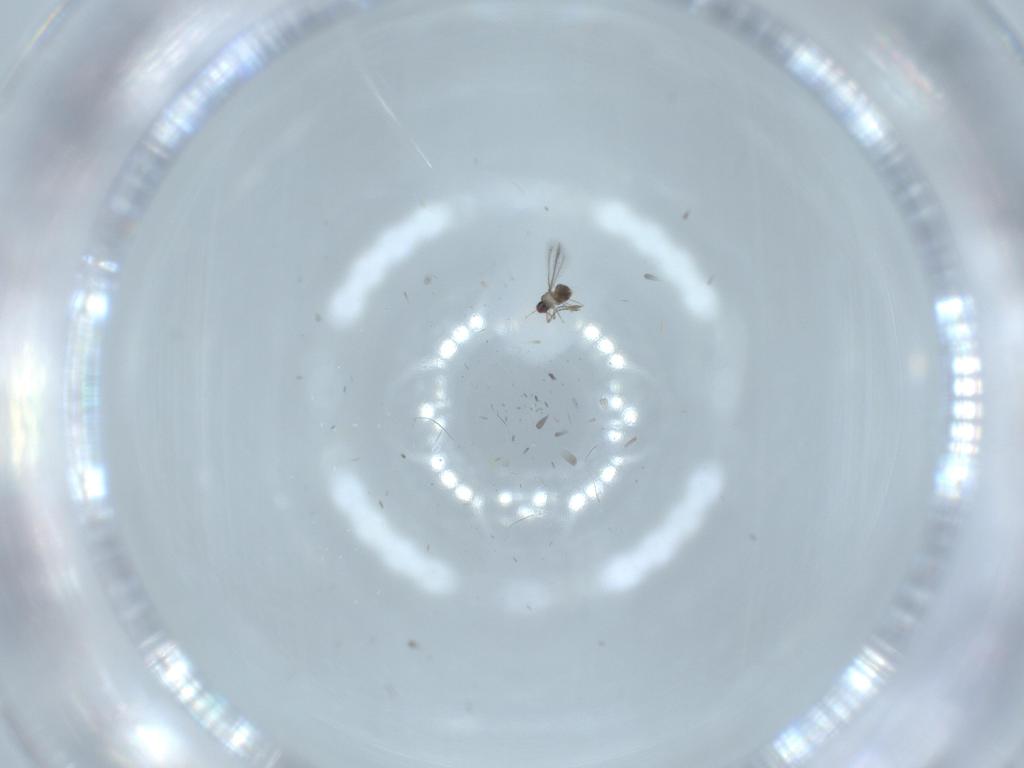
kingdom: Animalia
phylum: Arthropoda
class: Insecta
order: Hymenoptera
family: Mymaridae
